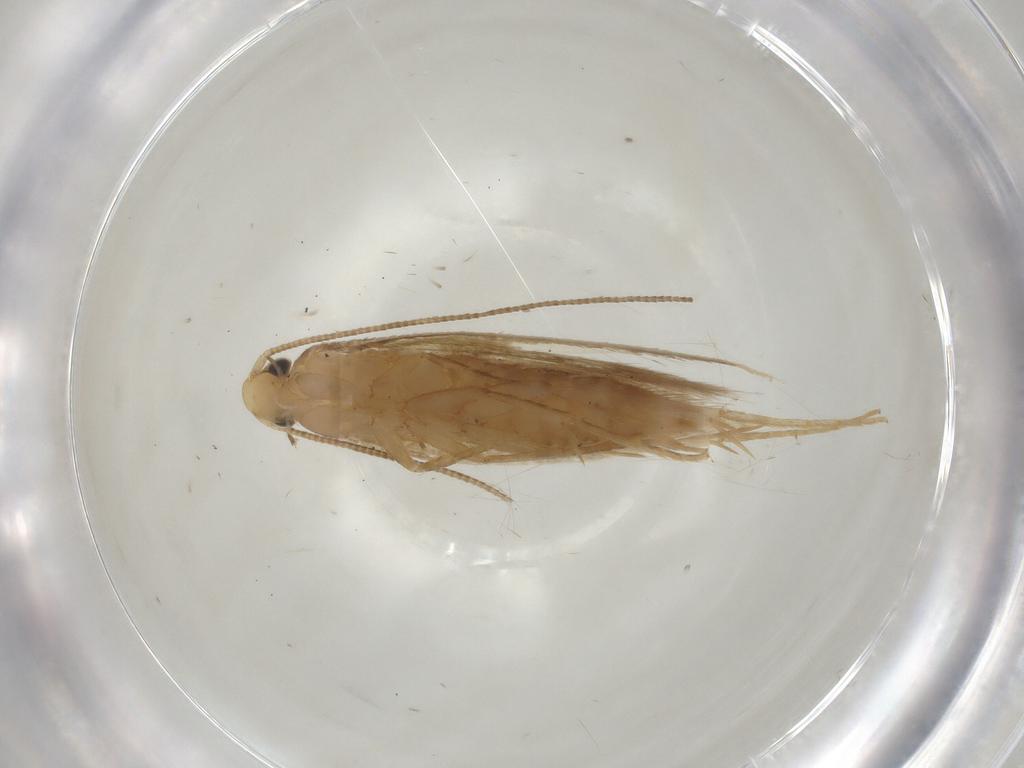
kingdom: Animalia
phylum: Arthropoda
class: Insecta
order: Lepidoptera
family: Tineidae
